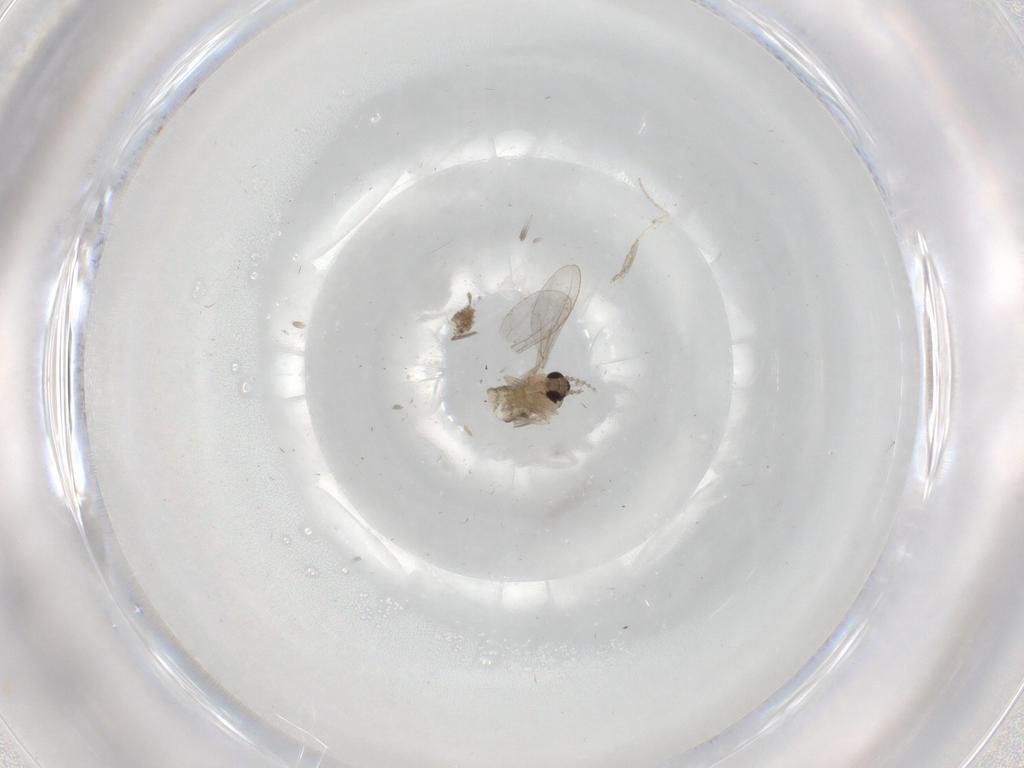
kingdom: Animalia
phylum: Arthropoda
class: Insecta
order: Diptera
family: Cecidomyiidae
